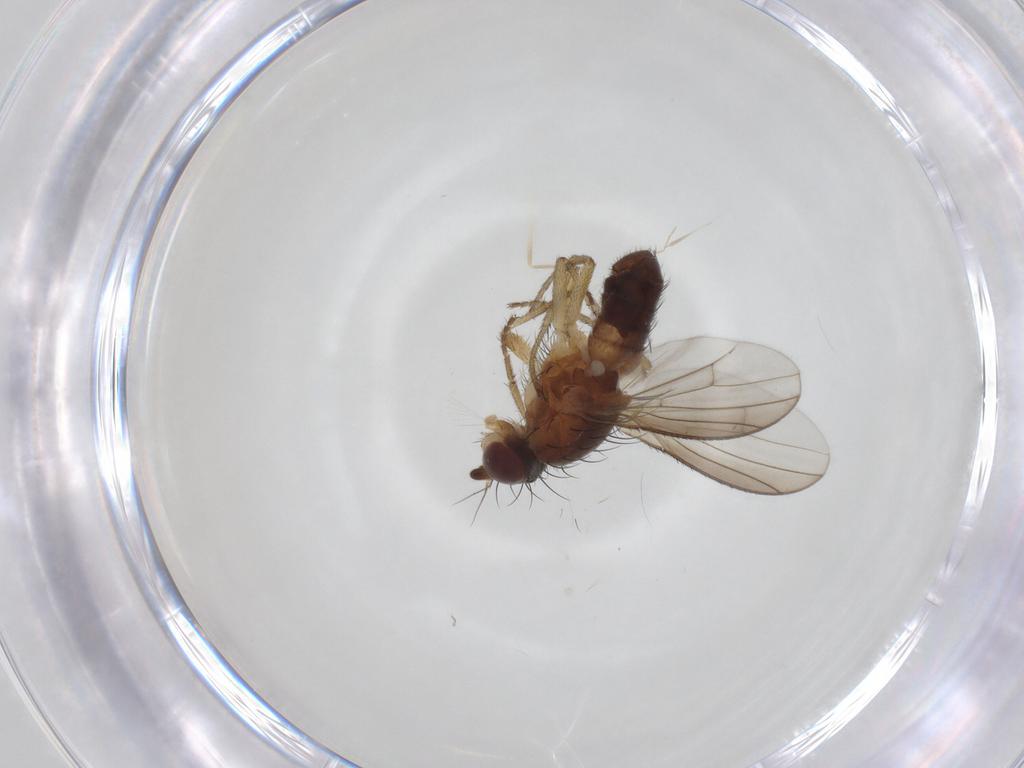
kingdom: Animalia
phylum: Arthropoda
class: Insecta
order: Diptera
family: Heleomyzidae
